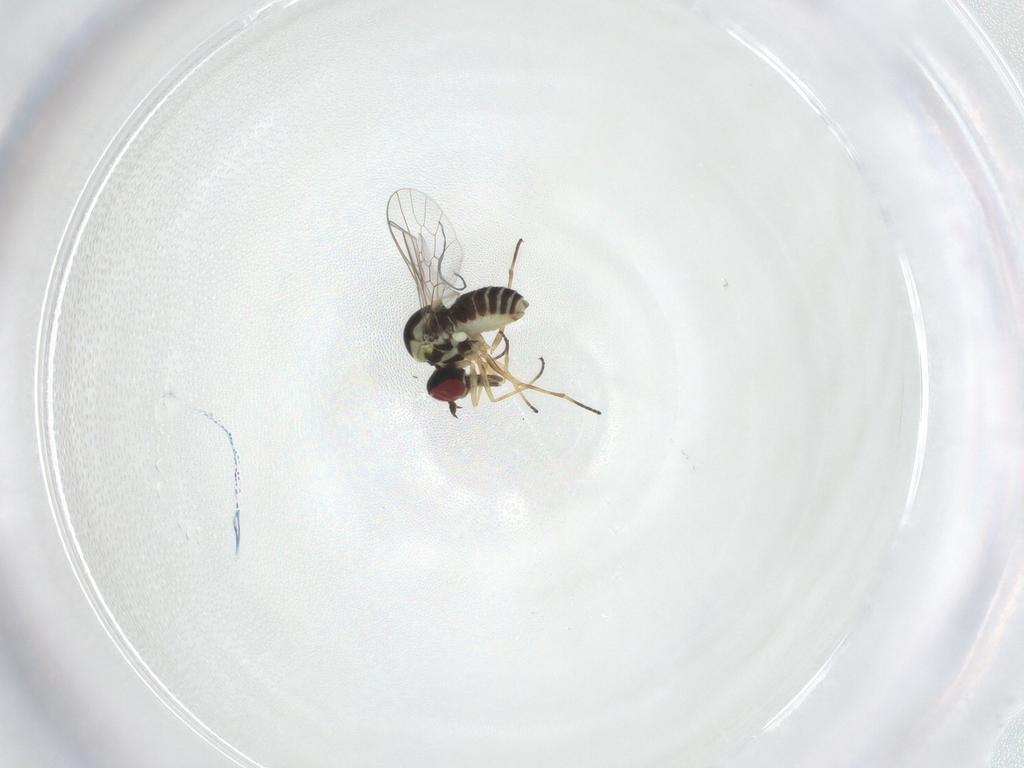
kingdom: Animalia
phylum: Arthropoda
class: Insecta
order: Diptera
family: Bombyliidae
